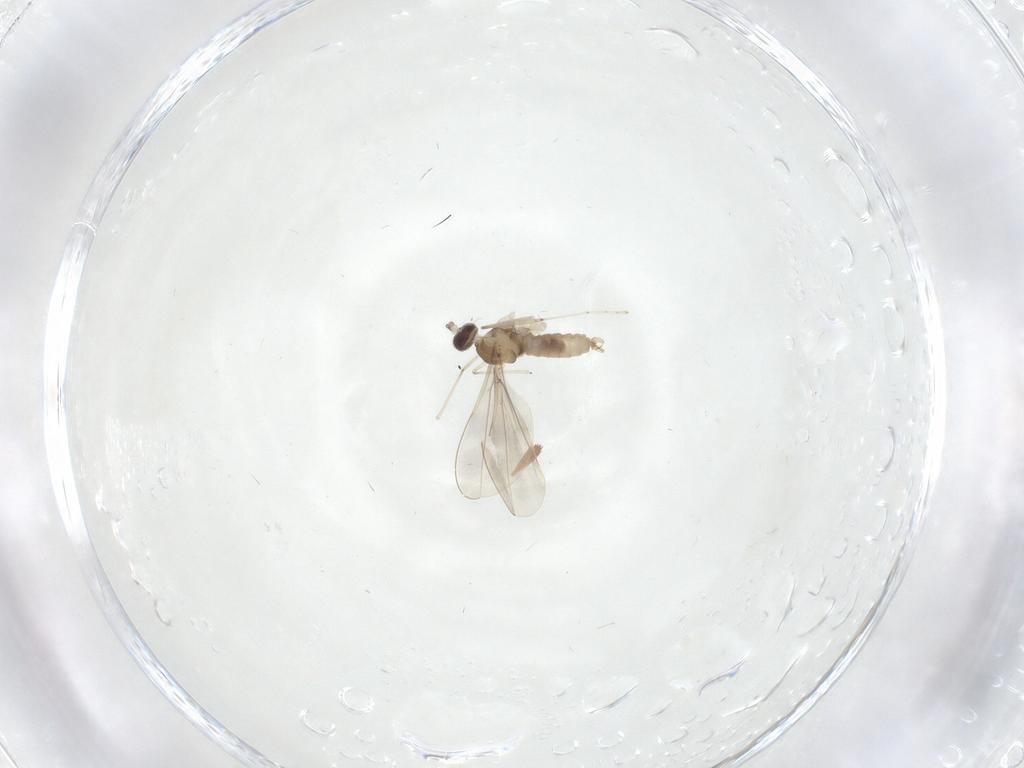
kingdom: Animalia
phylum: Arthropoda
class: Insecta
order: Diptera
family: Cecidomyiidae
